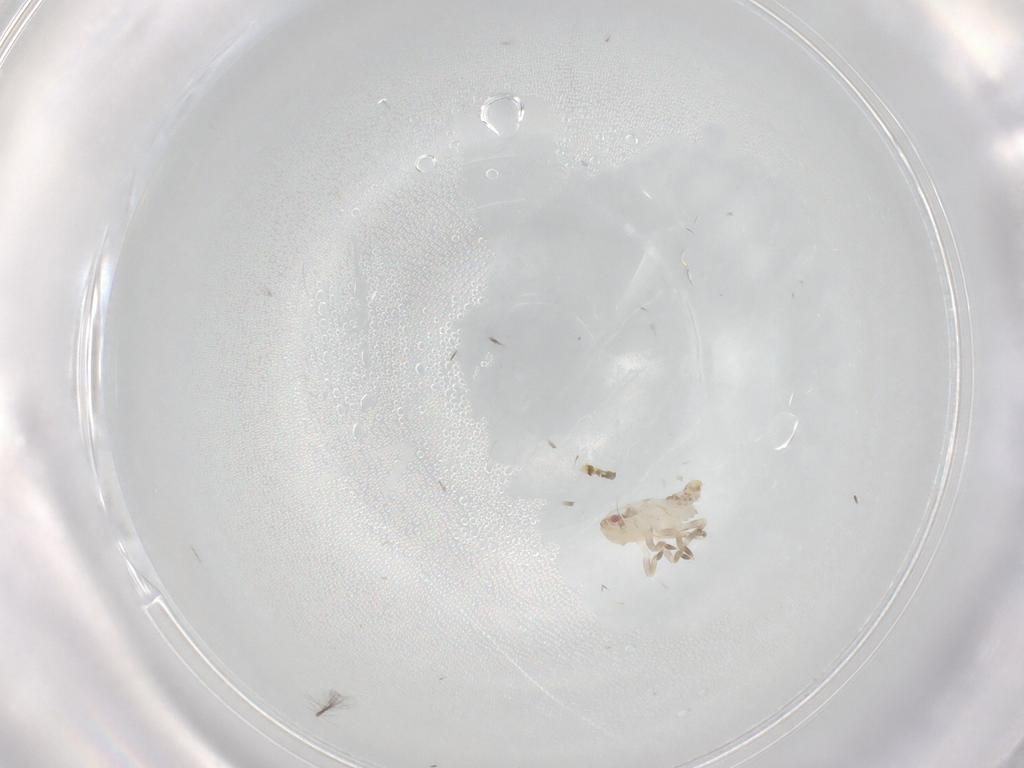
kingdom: Animalia
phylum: Arthropoda
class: Insecta
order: Hemiptera
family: Flatidae
